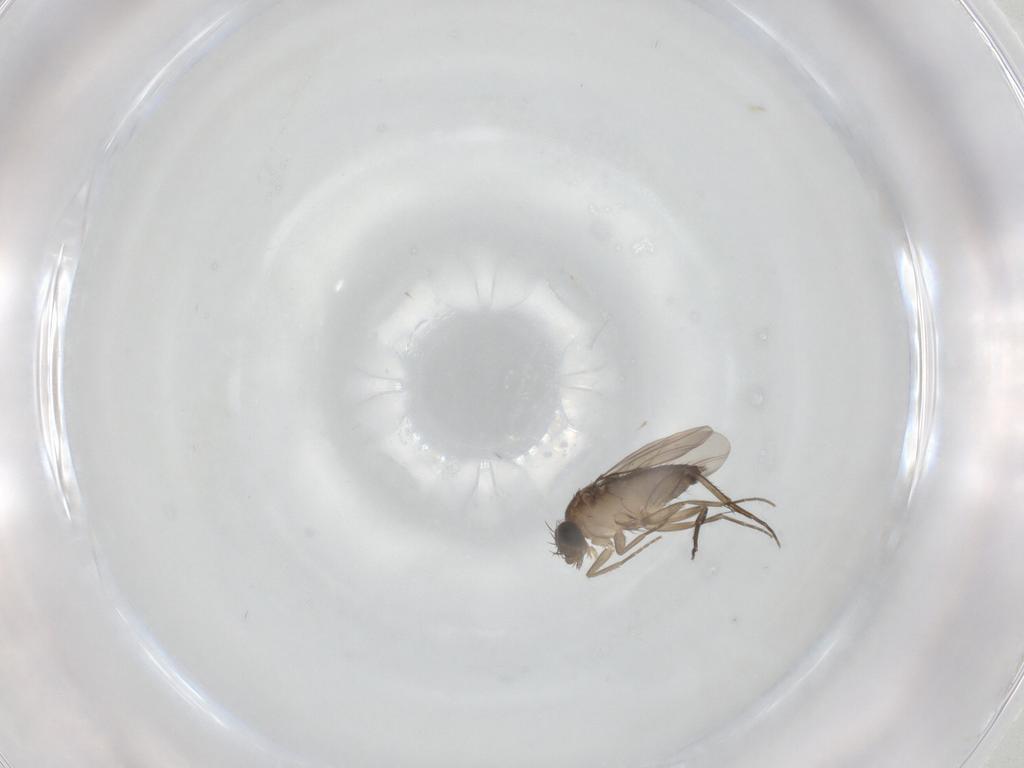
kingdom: Animalia
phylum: Arthropoda
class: Insecta
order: Diptera
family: Phoridae
